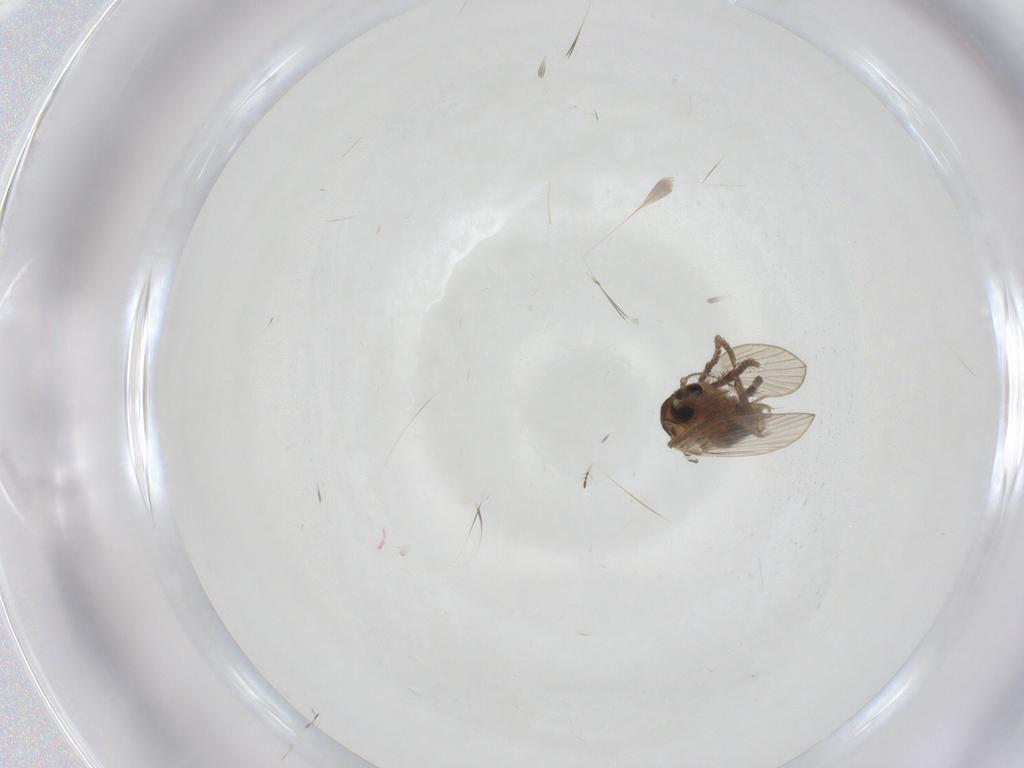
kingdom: Animalia
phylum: Arthropoda
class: Insecta
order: Diptera
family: Psychodidae
